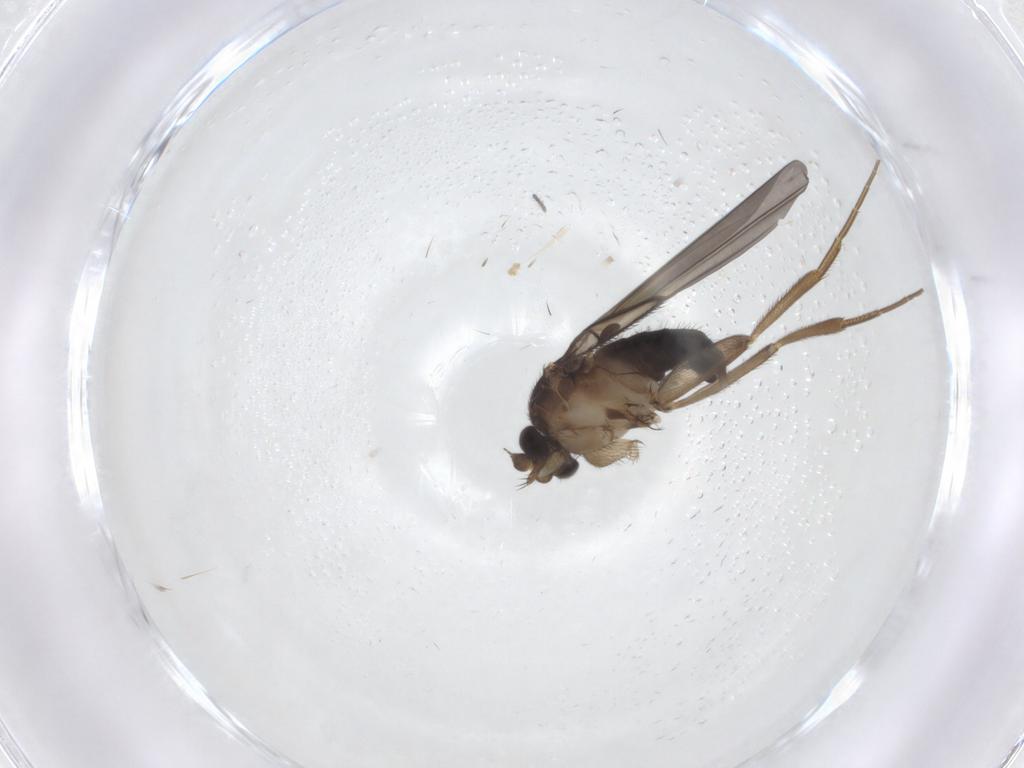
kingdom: Animalia
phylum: Arthropoda
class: Insecta
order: Diptera
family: Phoridae
